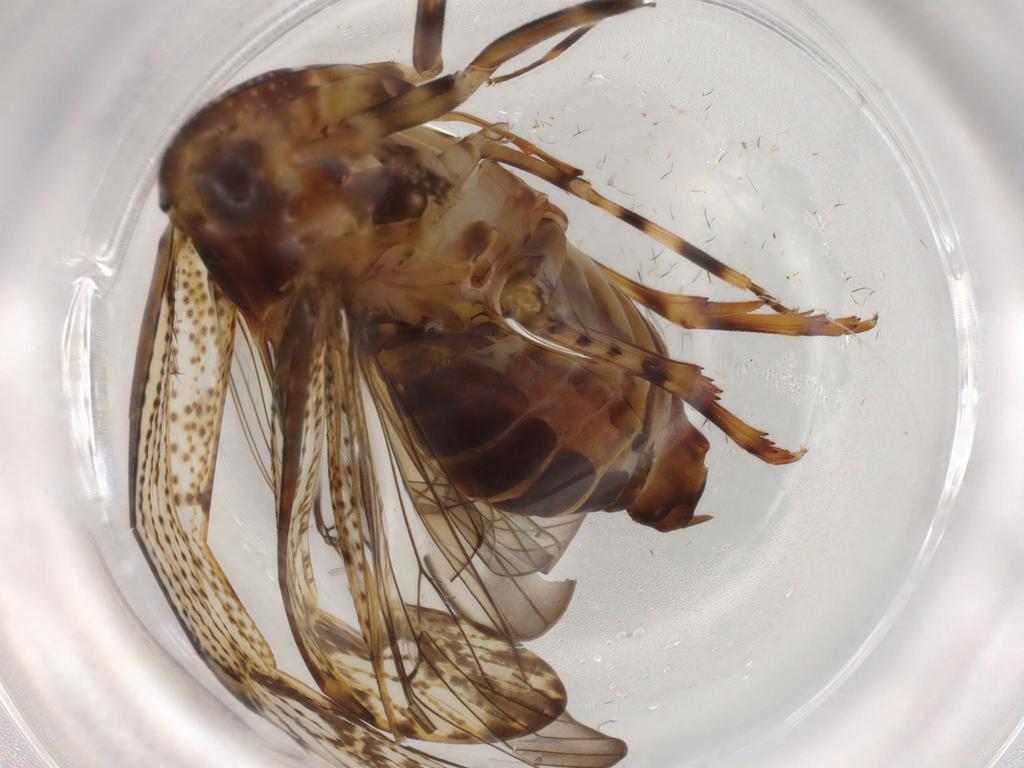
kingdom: Animalia
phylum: Arthropoda
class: Insecta
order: Hemiptera
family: Delphacidae
